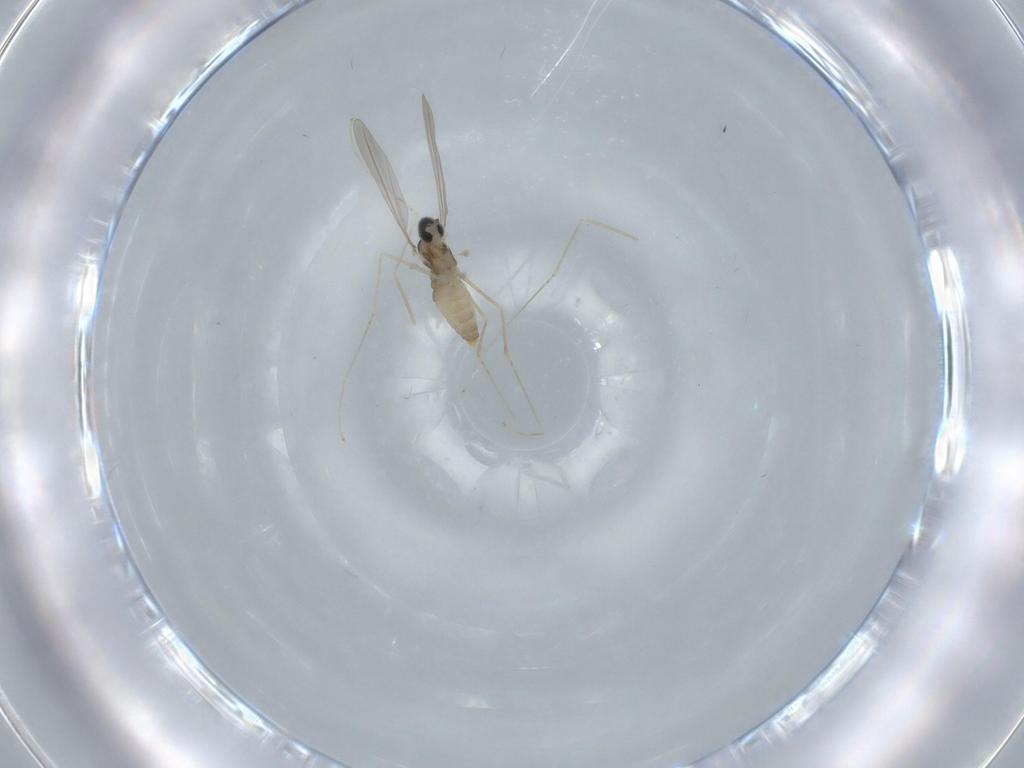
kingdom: Animalia
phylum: Arthropoda
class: Insecta
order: Diptera
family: Cecidomyiidae
